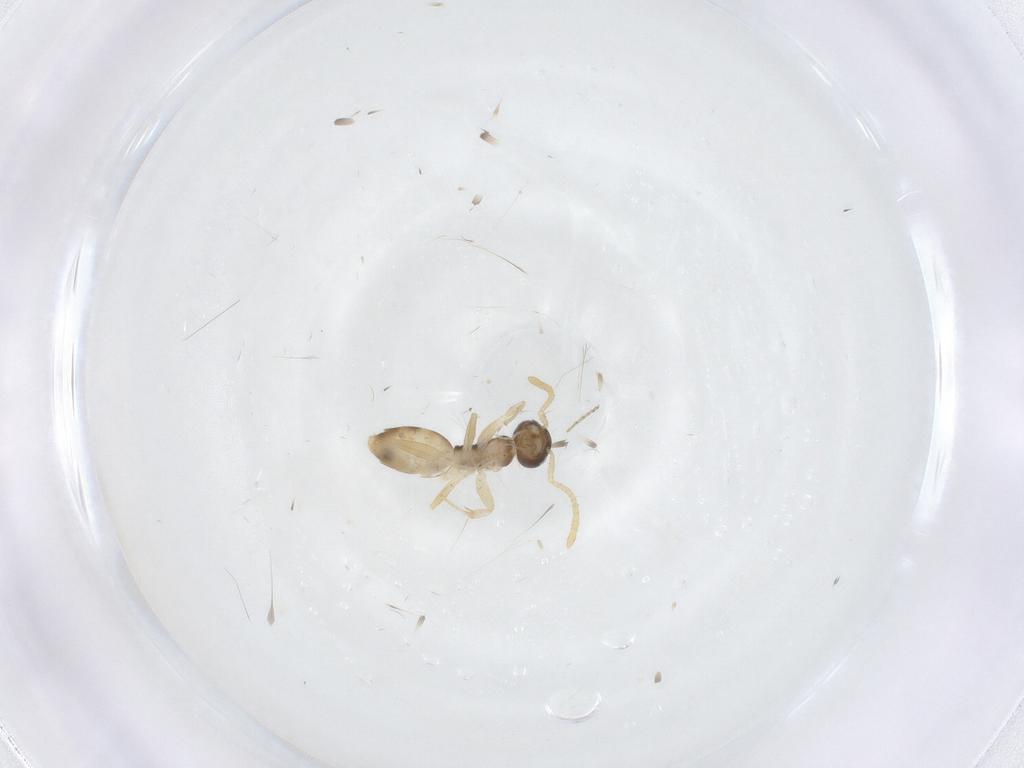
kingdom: Animalia
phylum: Arthropoda
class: Insecta
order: Hymenoptera
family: Formicidae
